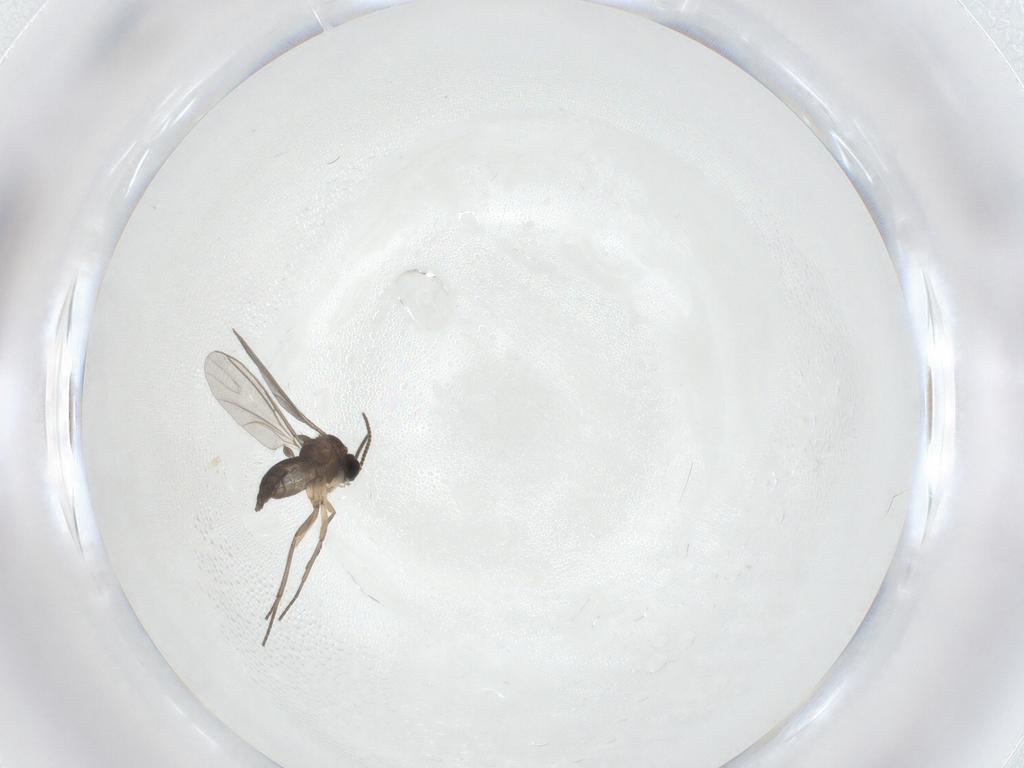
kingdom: Animalia
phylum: Arthropoda
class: Insecta
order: Diptera
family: Sciaridae
